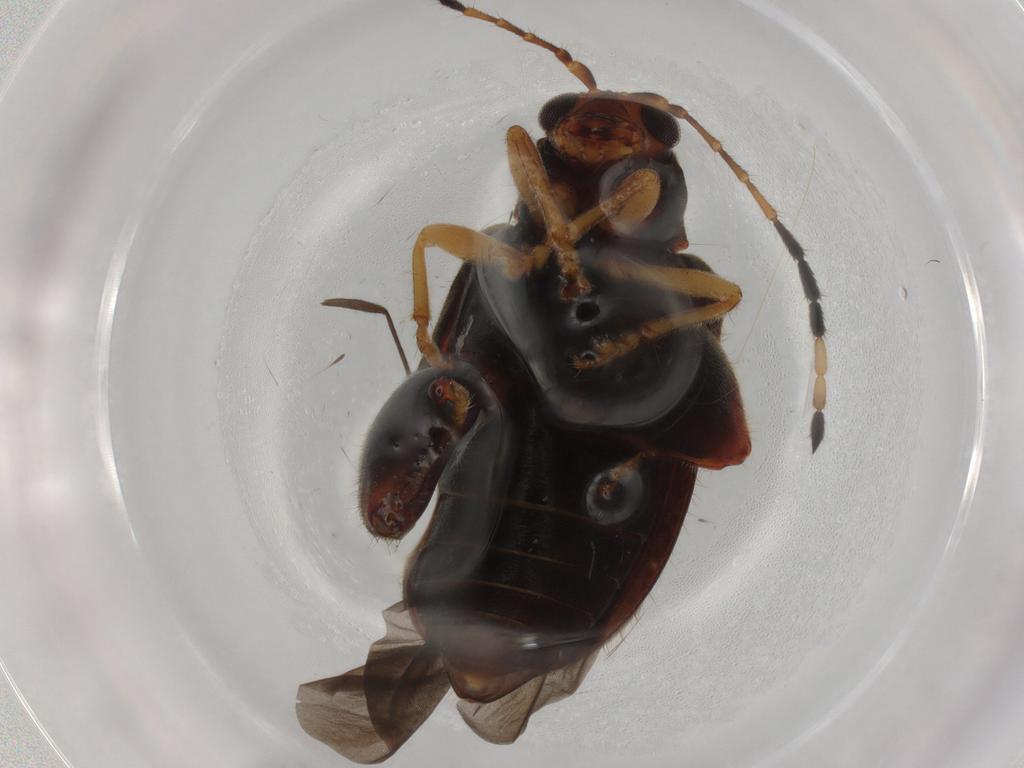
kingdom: Animalia
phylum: Arthropoda
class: Insecta
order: Coleoptera
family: Chrysomelidae
